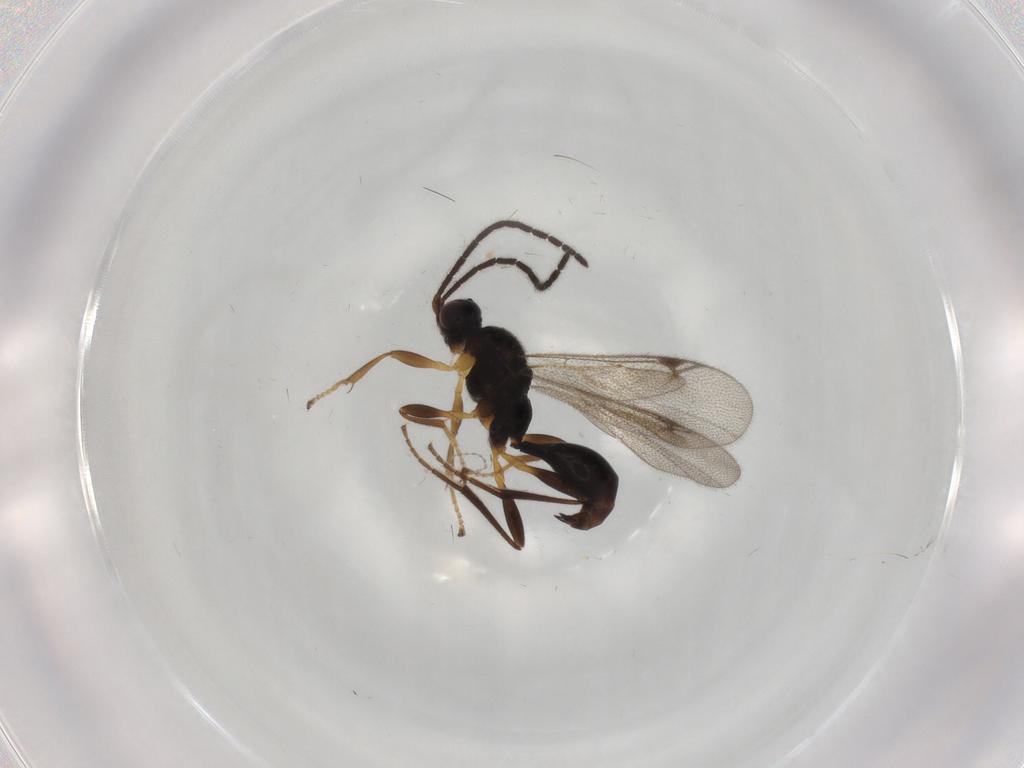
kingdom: Animalia
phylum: Arthropoda
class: Insecta
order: Hymenoptera
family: Proctotrupidae
